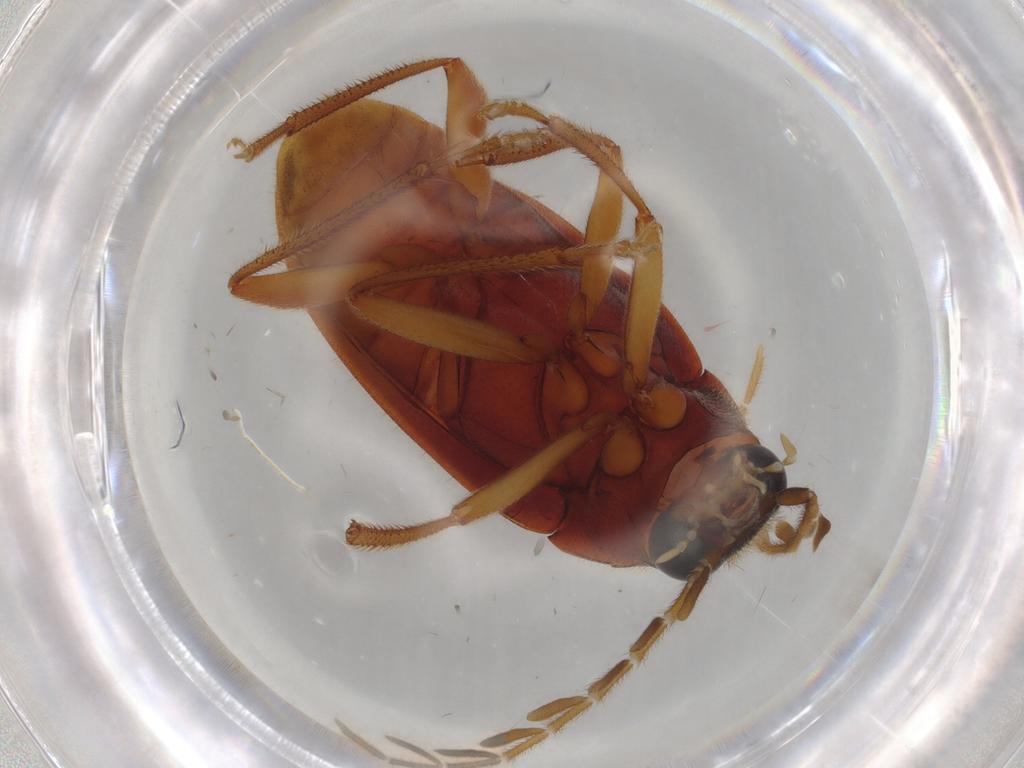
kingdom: Animalia
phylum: Arthropoda
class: Insecta
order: Coleoptera
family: Ptilodactylidae
